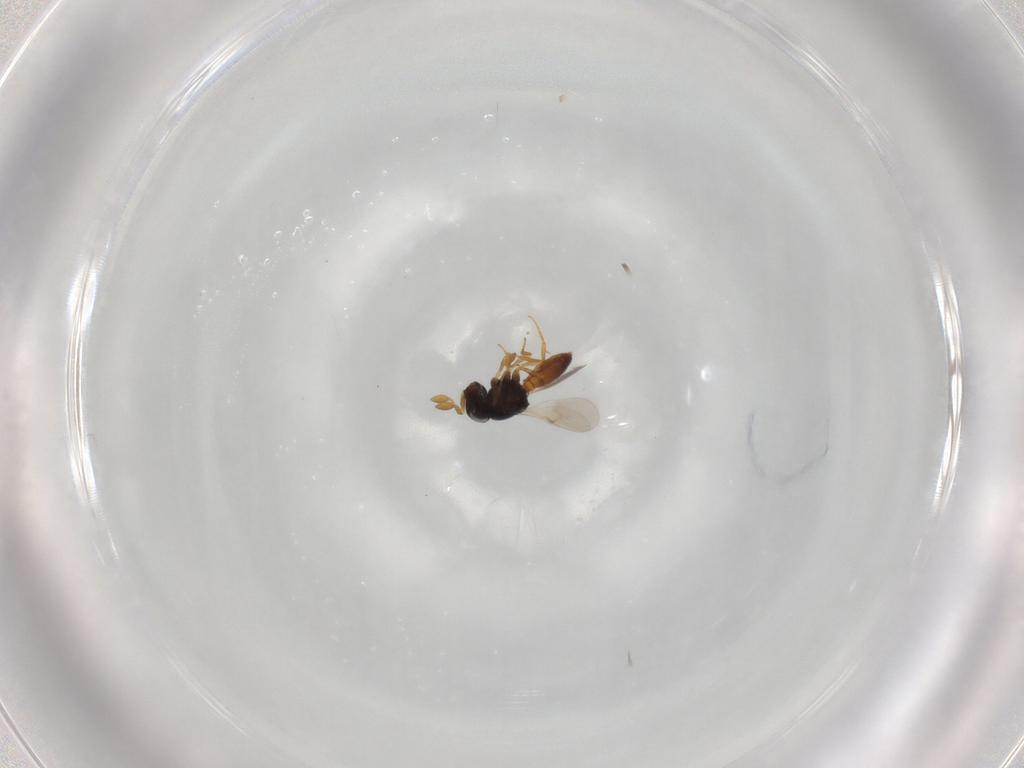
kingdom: Animalia
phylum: Arthropoda
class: Insecta
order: Hymenoptera
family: Scelionidae
